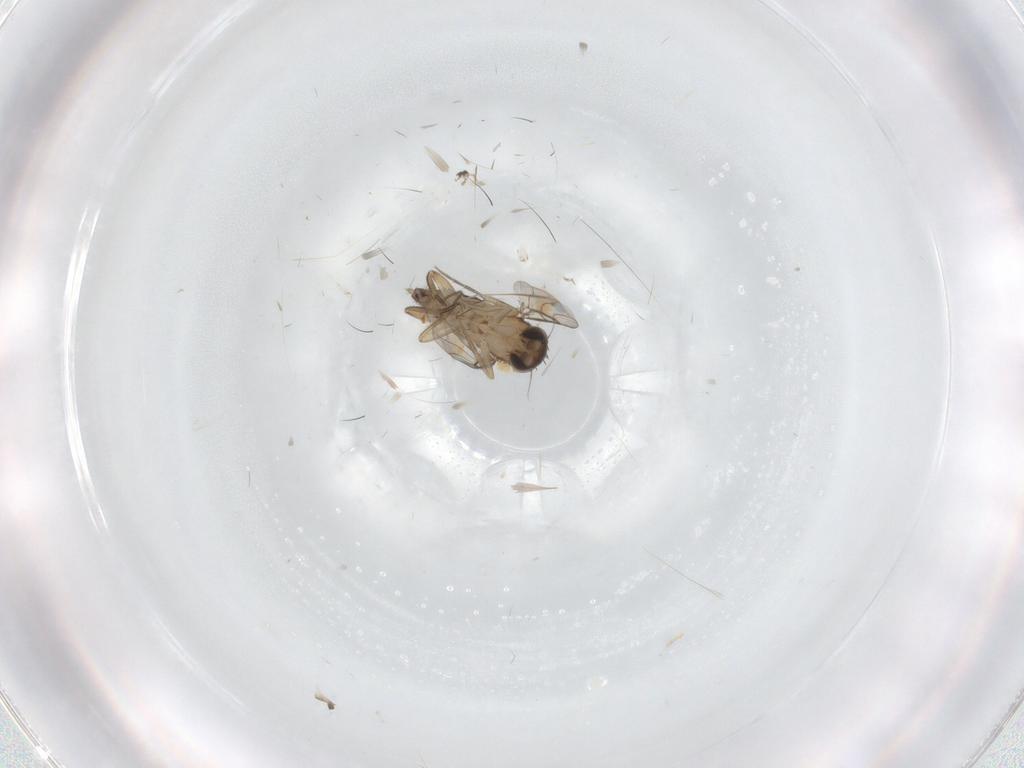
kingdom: Animalia
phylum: Arthropoda
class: Insecta
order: Diptera
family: Phoridae
